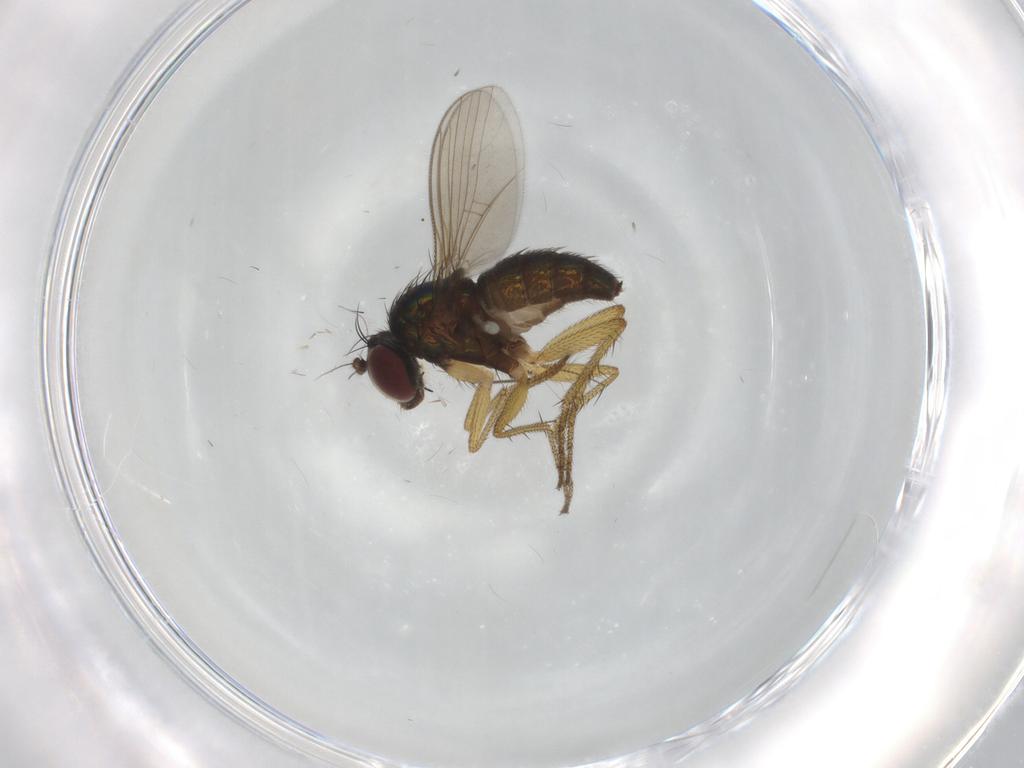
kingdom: Animalia
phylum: Arthropoda
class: Insecta
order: Diptera
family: Dolichopodidae
